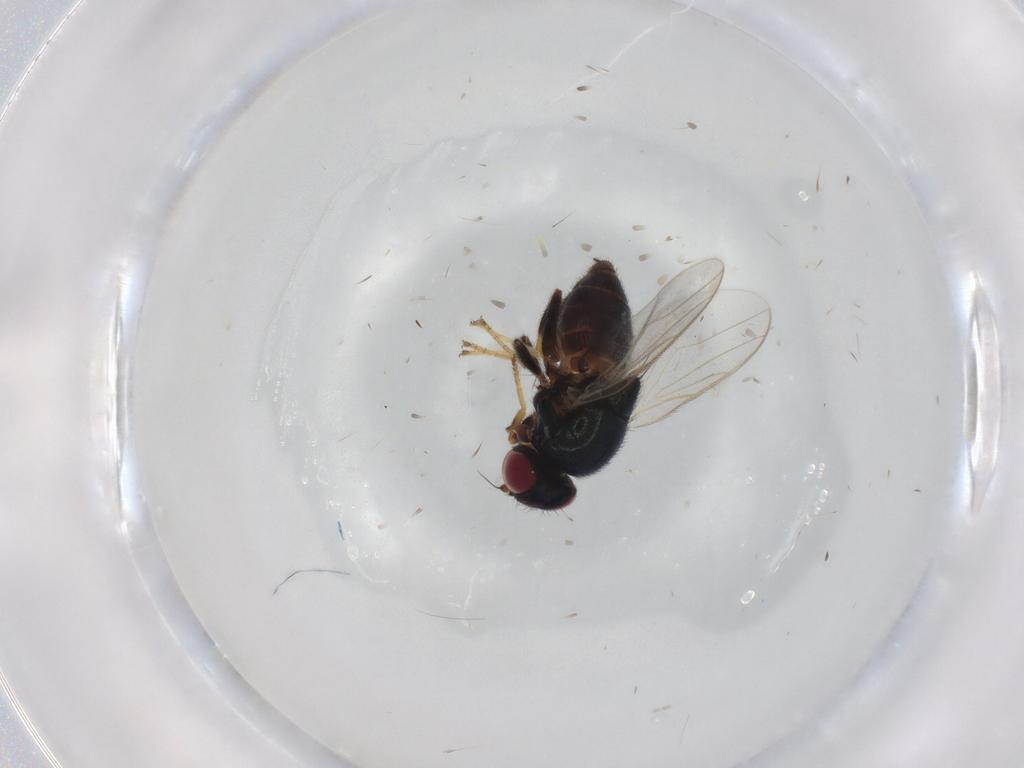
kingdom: Animalia
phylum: Arthropoda
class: Insecta
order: Diptera
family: Chloropidae
